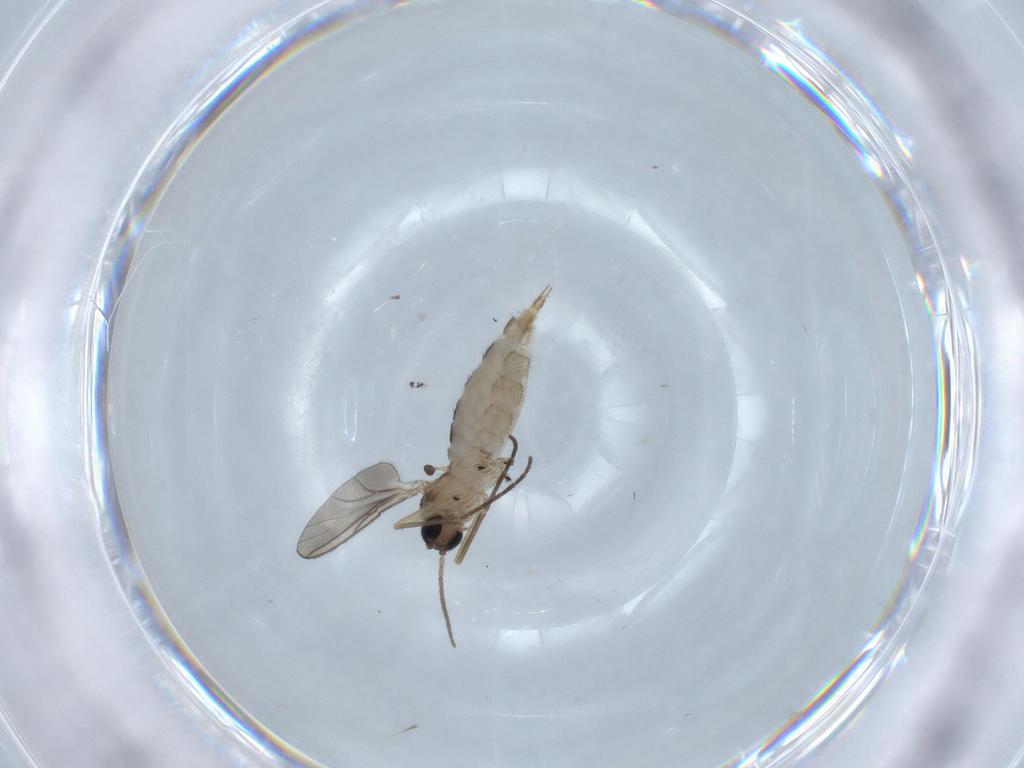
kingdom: Animalia
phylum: Arthropoda
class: Insecta
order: Diptera
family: Sciaridae
